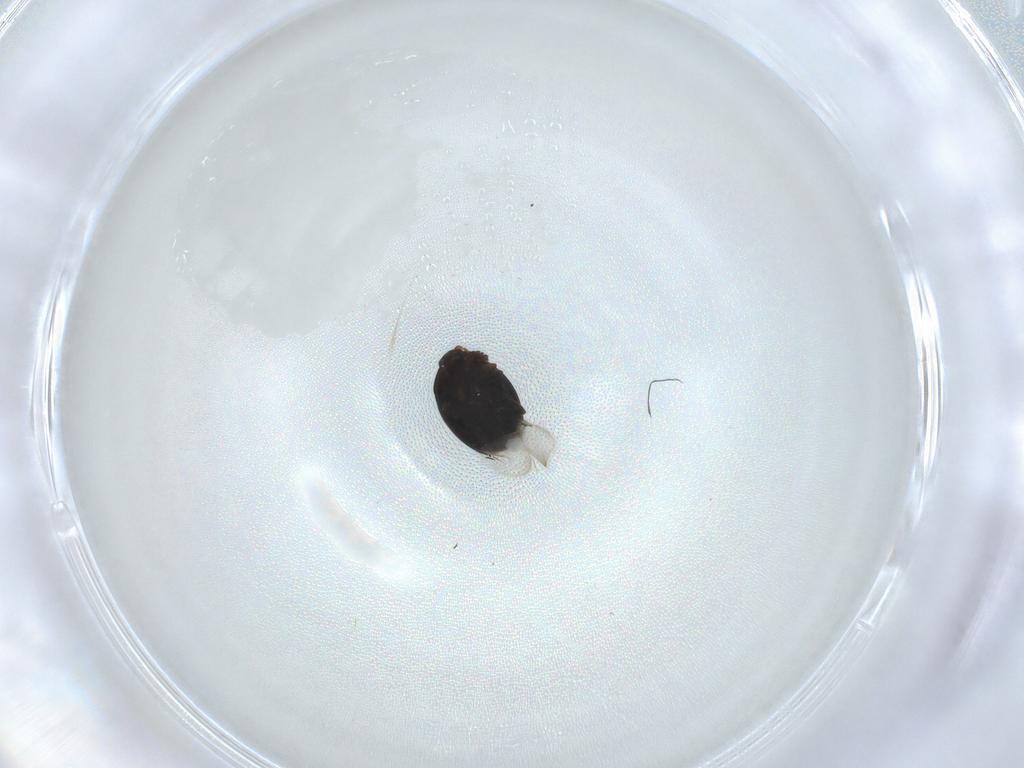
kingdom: Animalia
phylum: Arthropoda
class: Insecta
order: Coleoptera
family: Corylophidae
